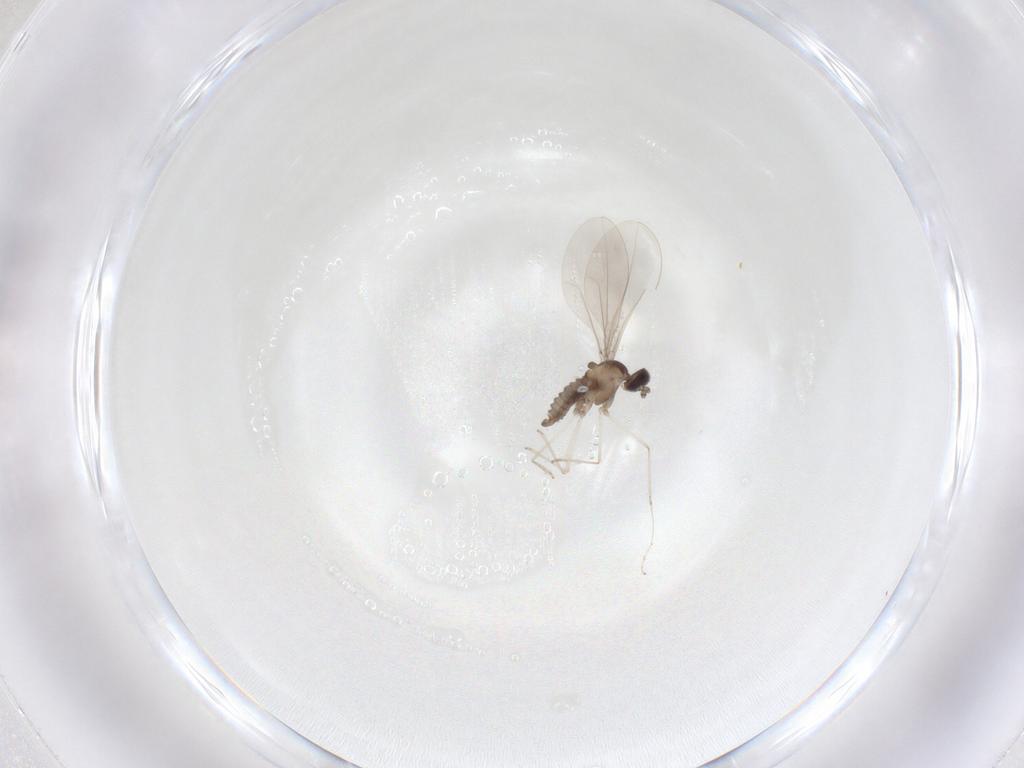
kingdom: Animalia
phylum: Arthropoda
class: Insecta
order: Diptera
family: Cecidomyiidae
